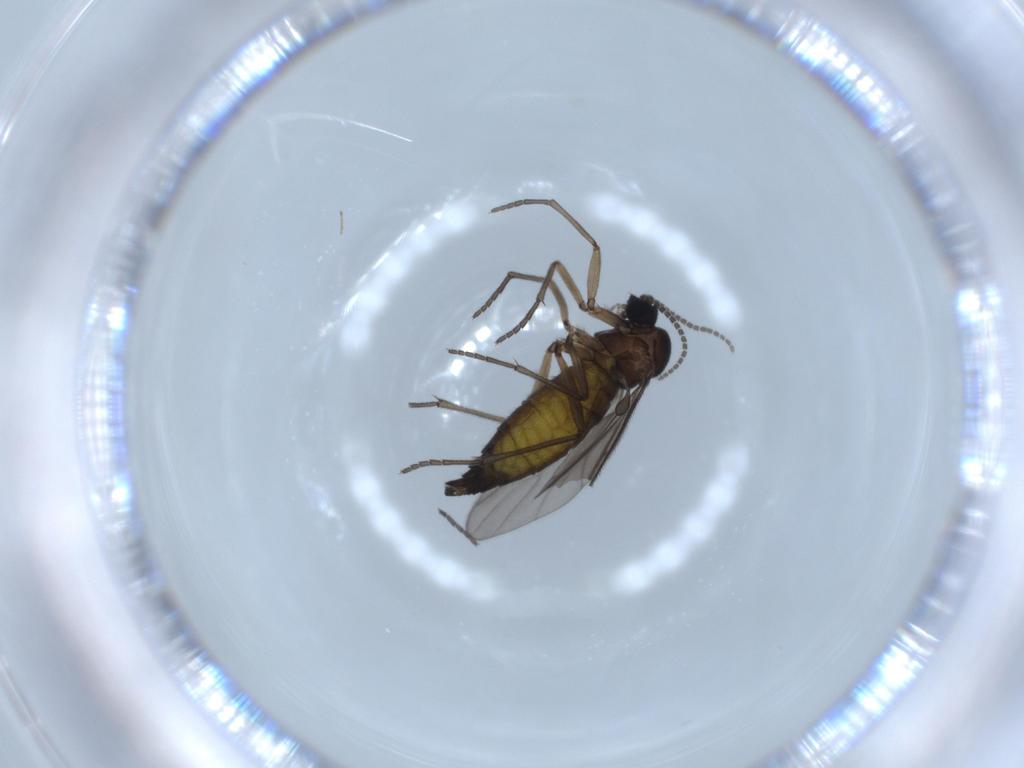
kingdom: Animalia
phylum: Arthropoda
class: Insecta
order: Diptera
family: Sciaridae
